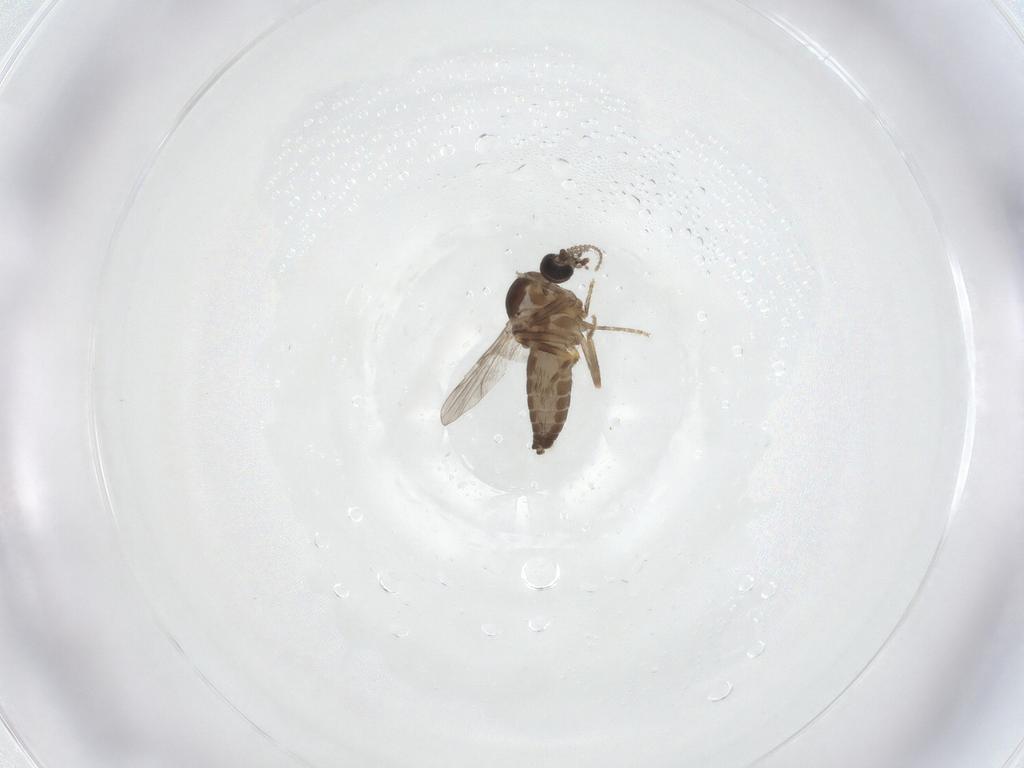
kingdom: Animalia
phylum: Arthropoda
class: Insecta
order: Diptera
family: Ceratopogonidae
